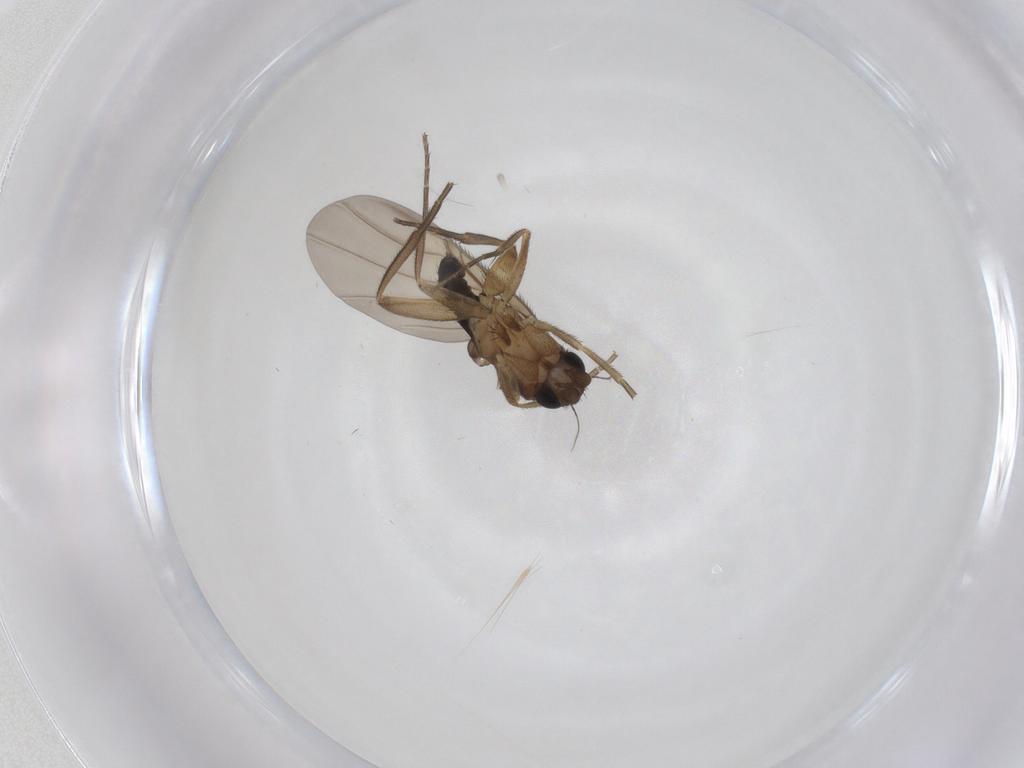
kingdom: Animalia
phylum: Arthropoda
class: Insecta
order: Diptera
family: Phoridae
